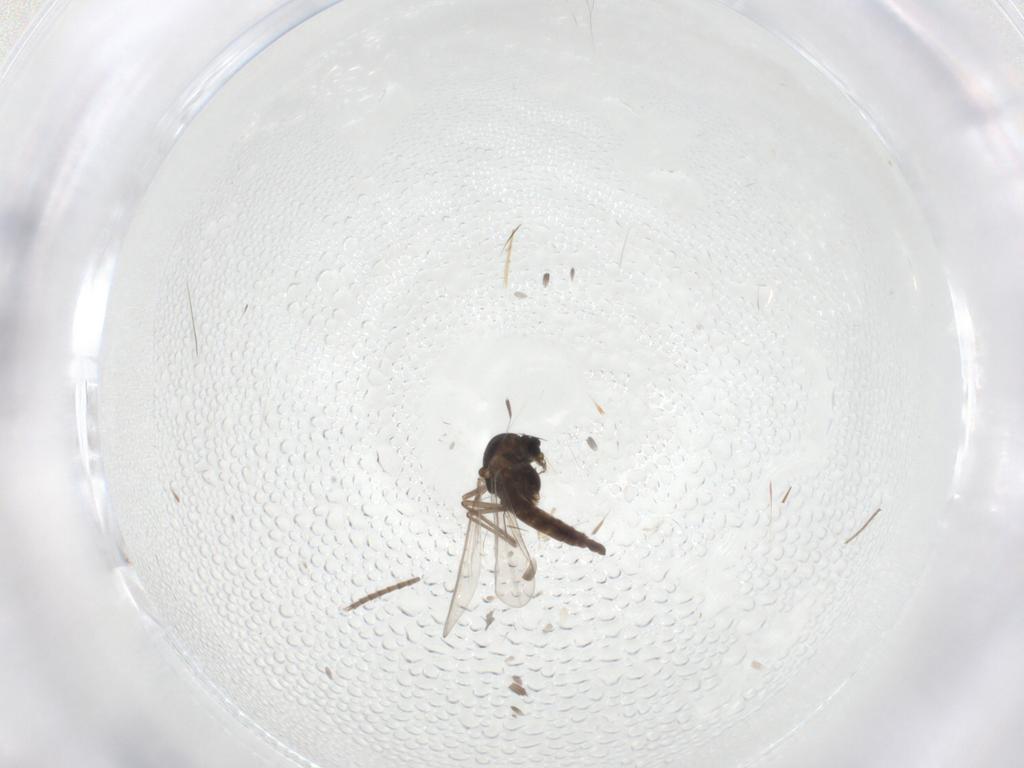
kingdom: Animalia
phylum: Arthropoda
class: Insecta
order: Diptera
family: Chironomidae
